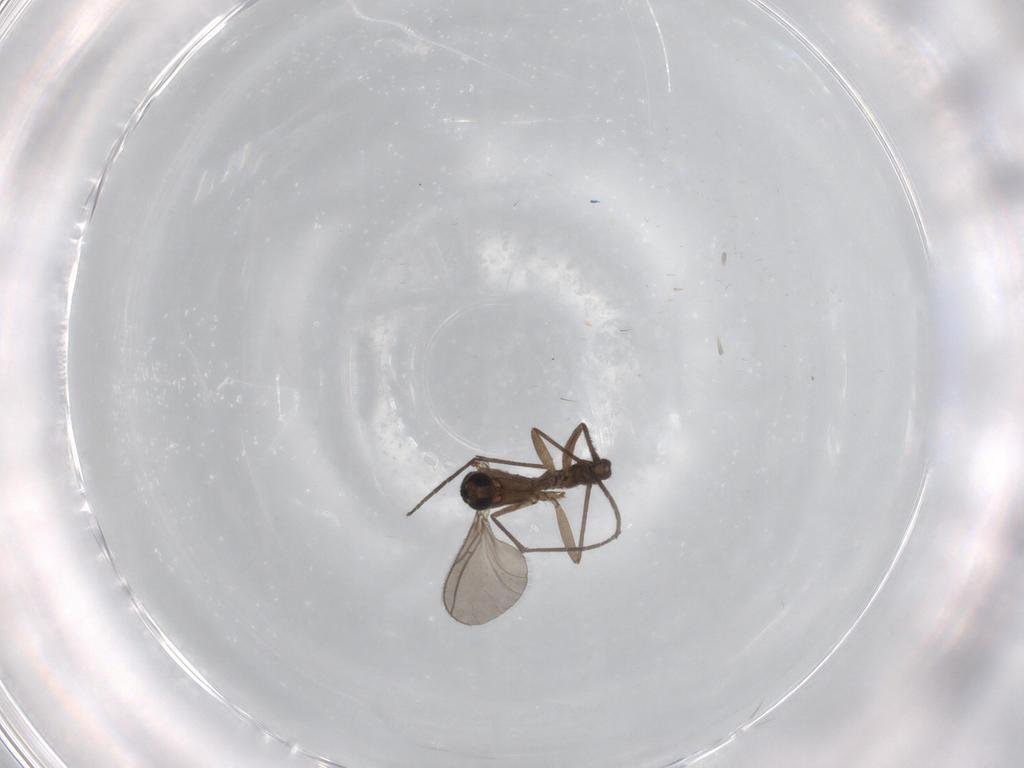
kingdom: Animalia
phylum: Arthropoda
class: Insecta
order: Diptera
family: Sciaridae
